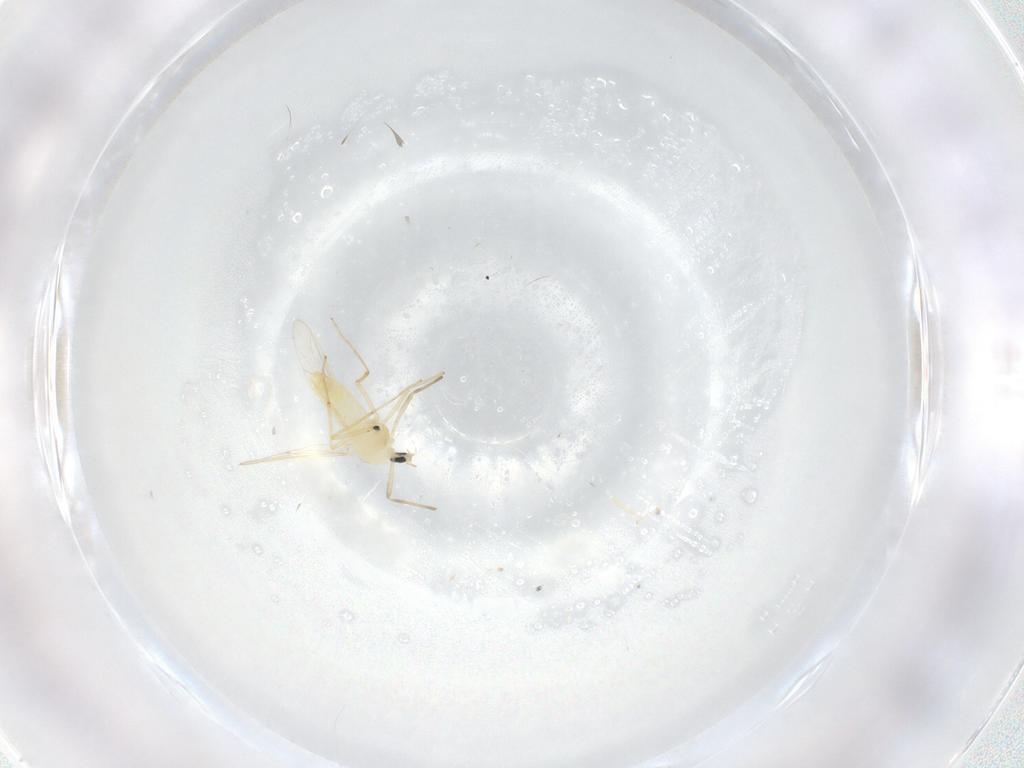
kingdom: Animalia
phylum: Arthropoda
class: Insecta
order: Diptera
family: Chironomidae
